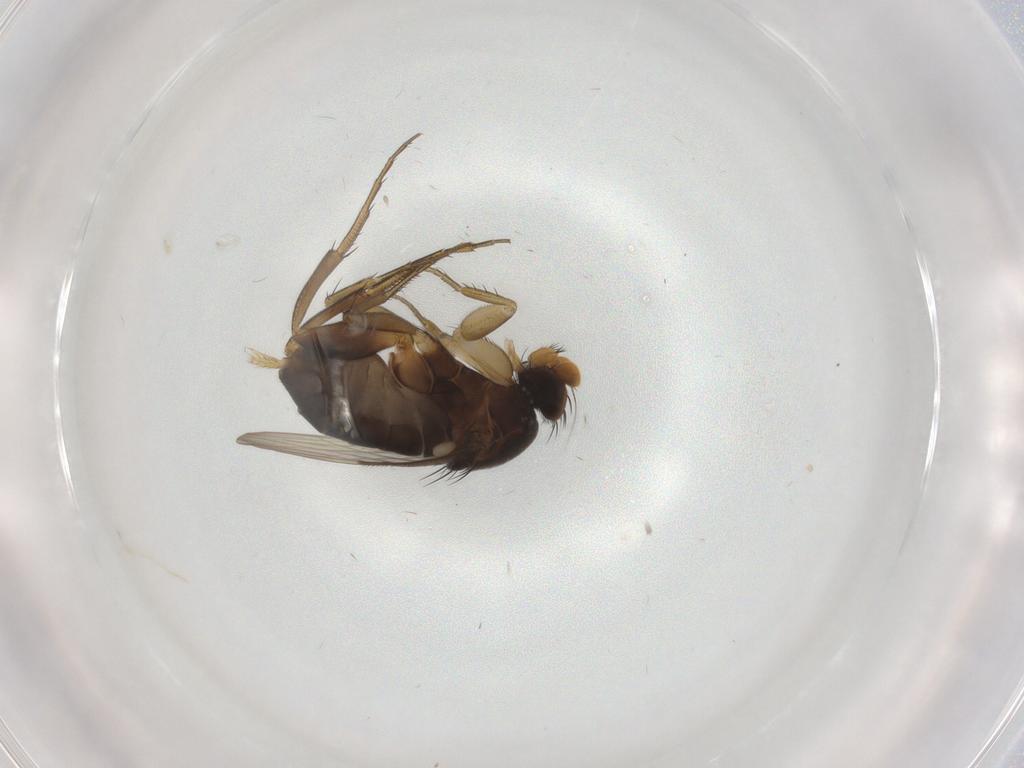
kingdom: Animalia
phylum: Arthropoda
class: Insecta
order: Diptera
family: Phoridae
